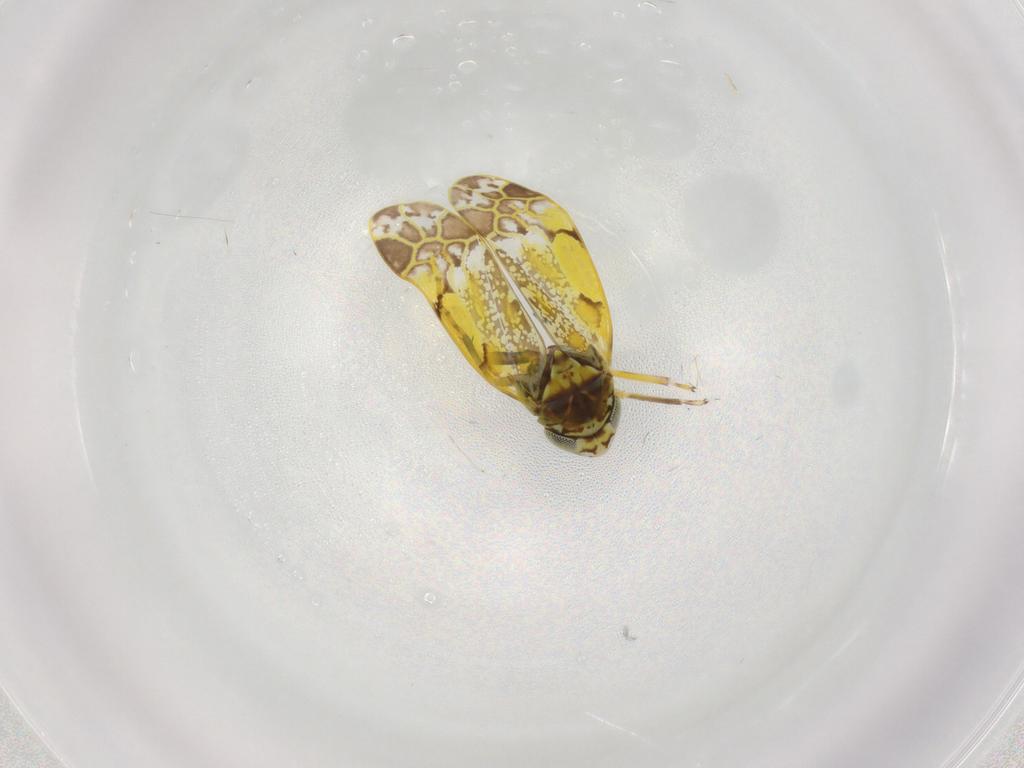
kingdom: Animalia
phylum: Arthropoda
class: Insecta
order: Hemiptera
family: Cicadellidae
